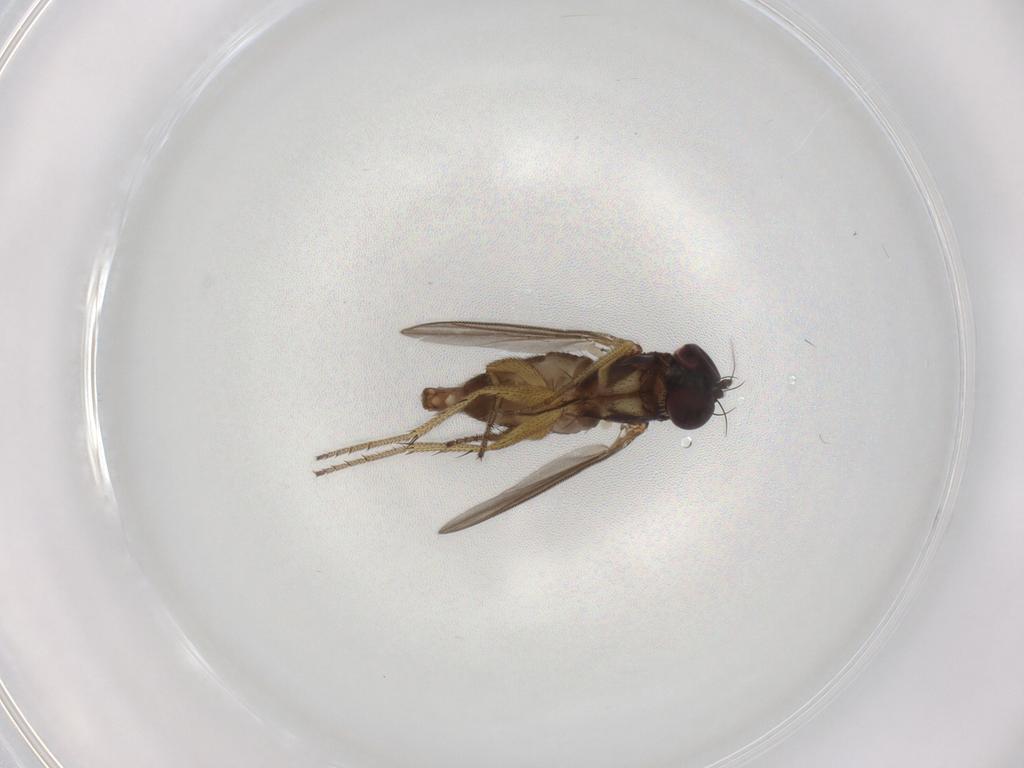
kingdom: Animalia
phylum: Arthropoda
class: Insecta
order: Diptera
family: Dolichopodidae
